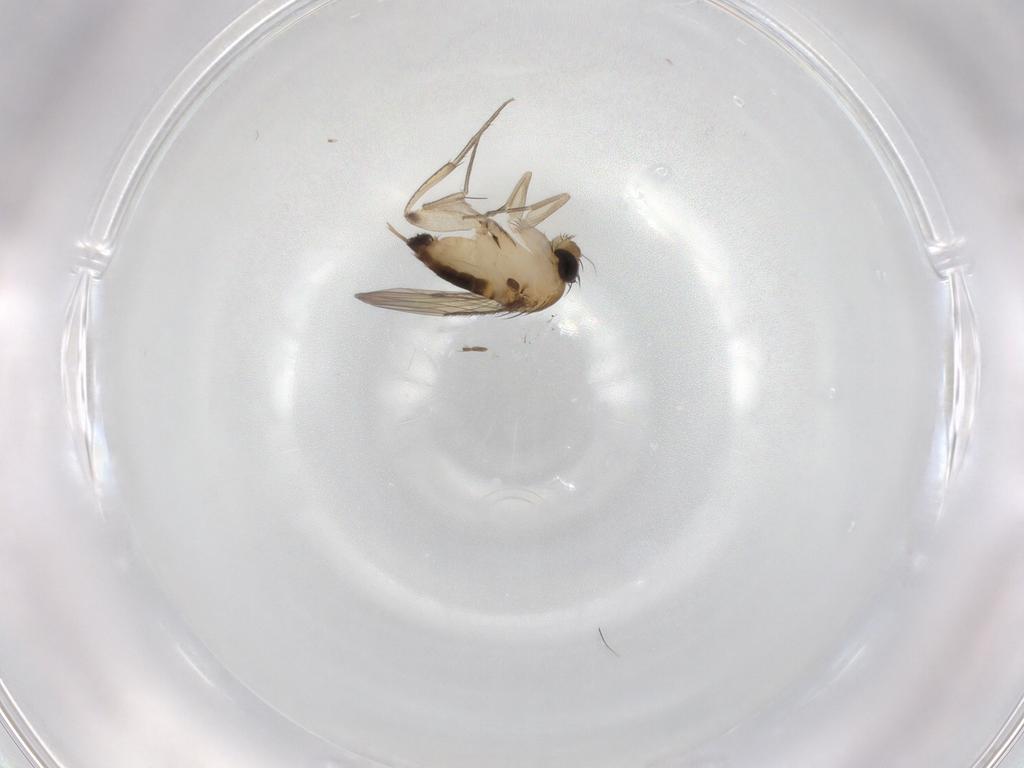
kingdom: Animalia
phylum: Arthropoda
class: Insecta
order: Diptera
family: Phoridae
